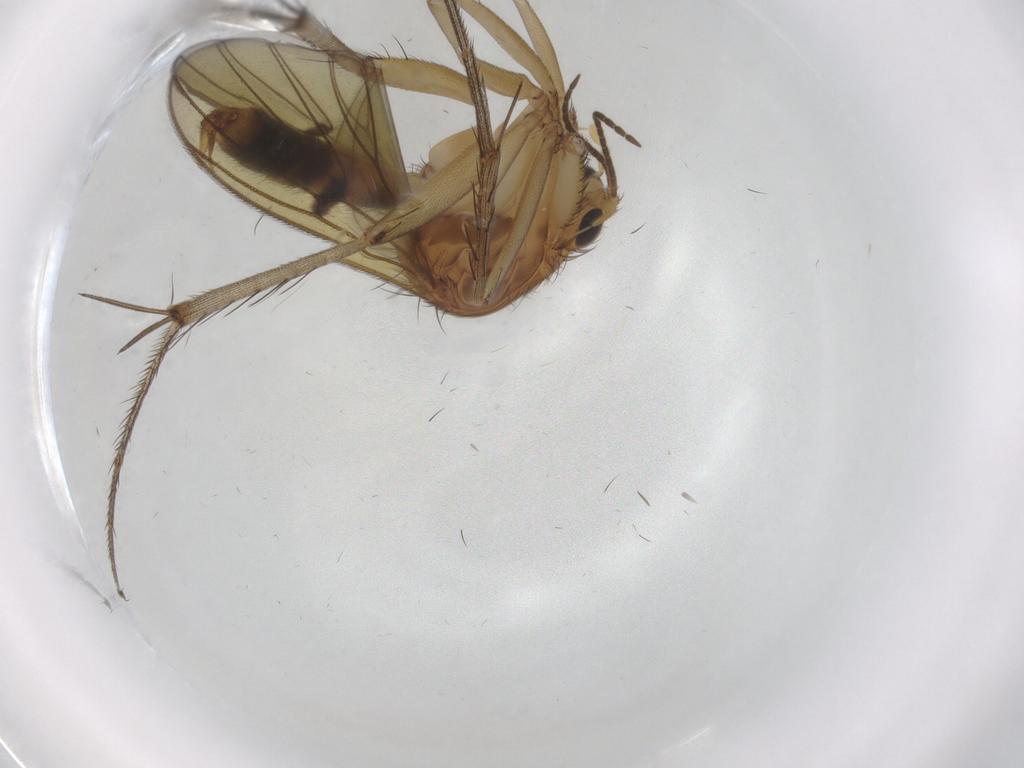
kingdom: Animalia
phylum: Arthropoda
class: Insecta
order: Diptera
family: Mycetophilidae
